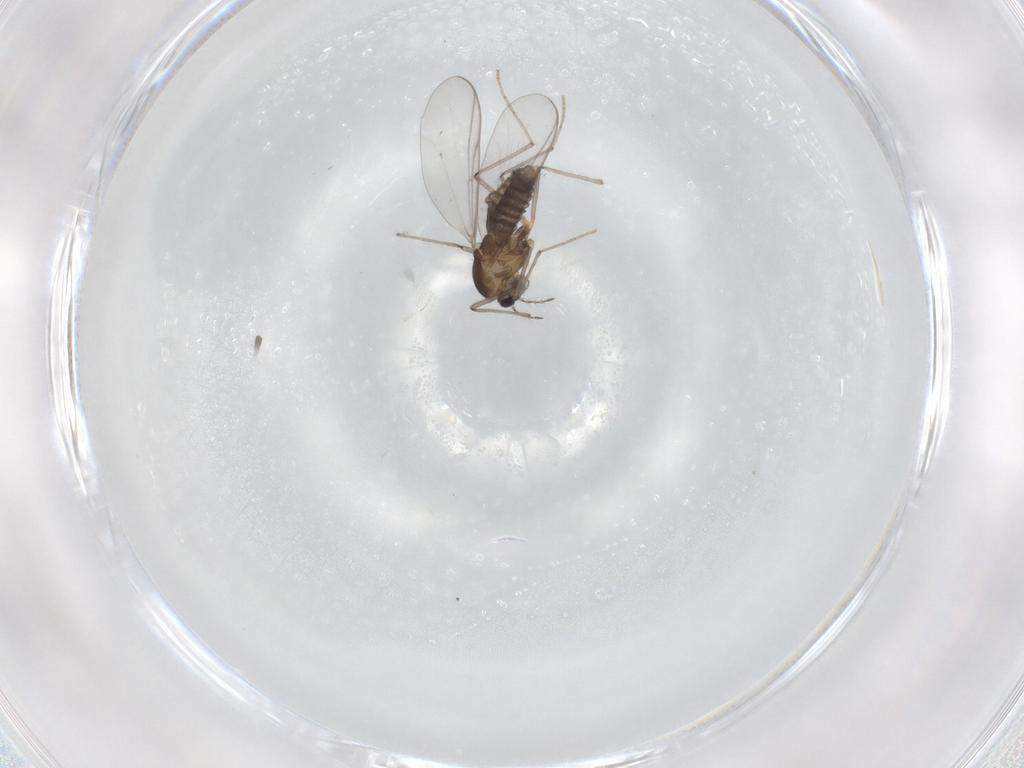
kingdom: Animalia
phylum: Arthropoda
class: Insecta
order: Diptera
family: Chironomidae
